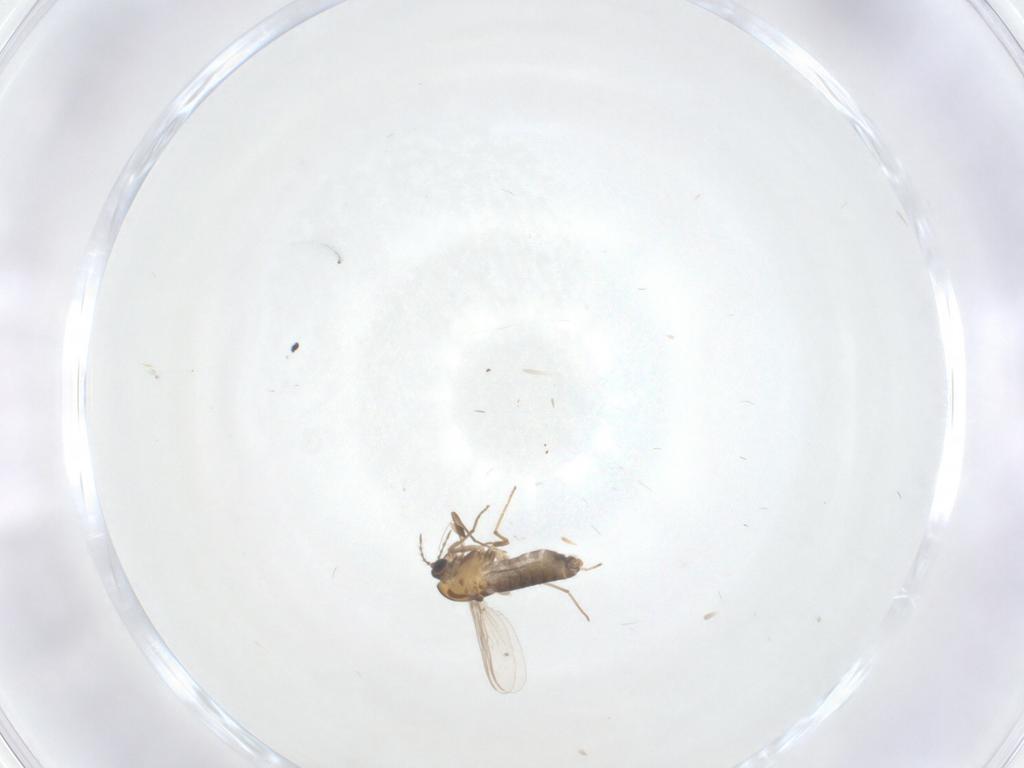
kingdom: Animalia
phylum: Arthropoda
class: Insecta
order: Diptera
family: Chironomidae
